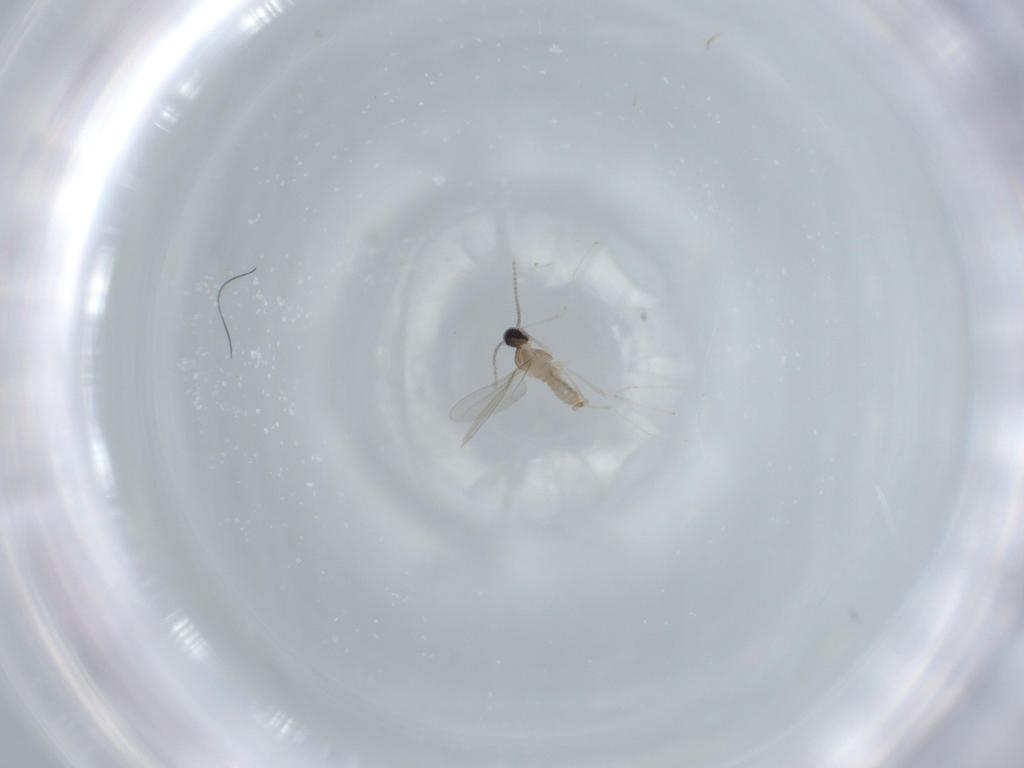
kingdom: Animalia
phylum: Arthropoda
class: Insecta
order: Diptera
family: Cecidomyiidae
